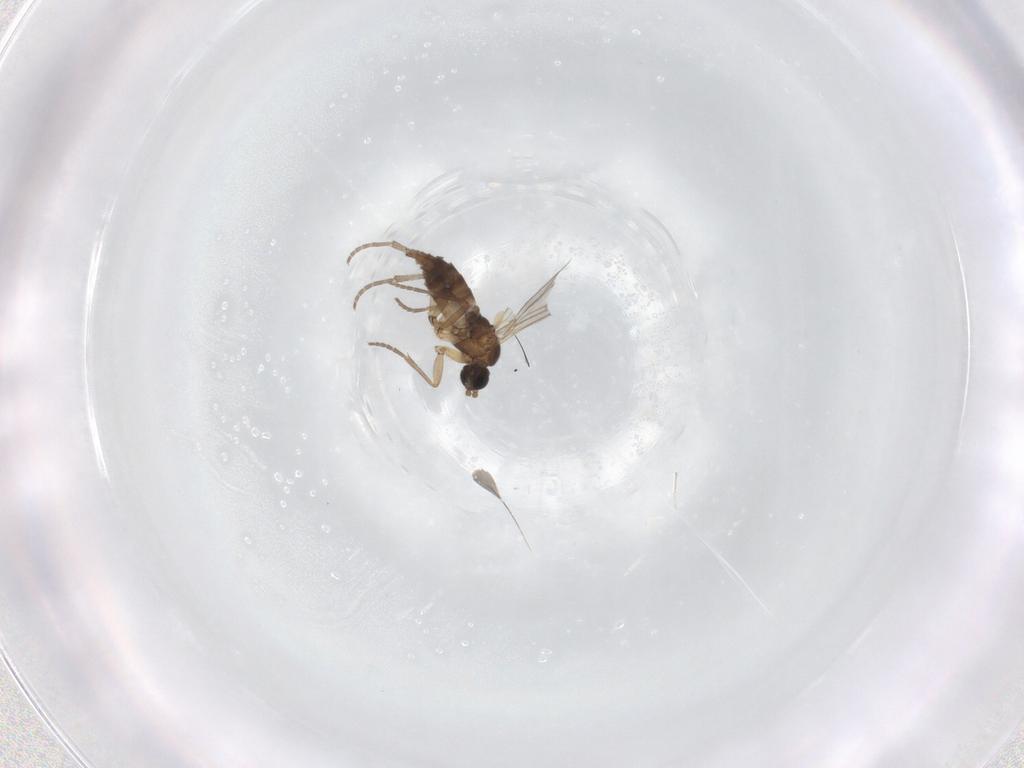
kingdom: Animalia
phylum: Arthropoda
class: Insecta
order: Diptera
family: Sciaridae
